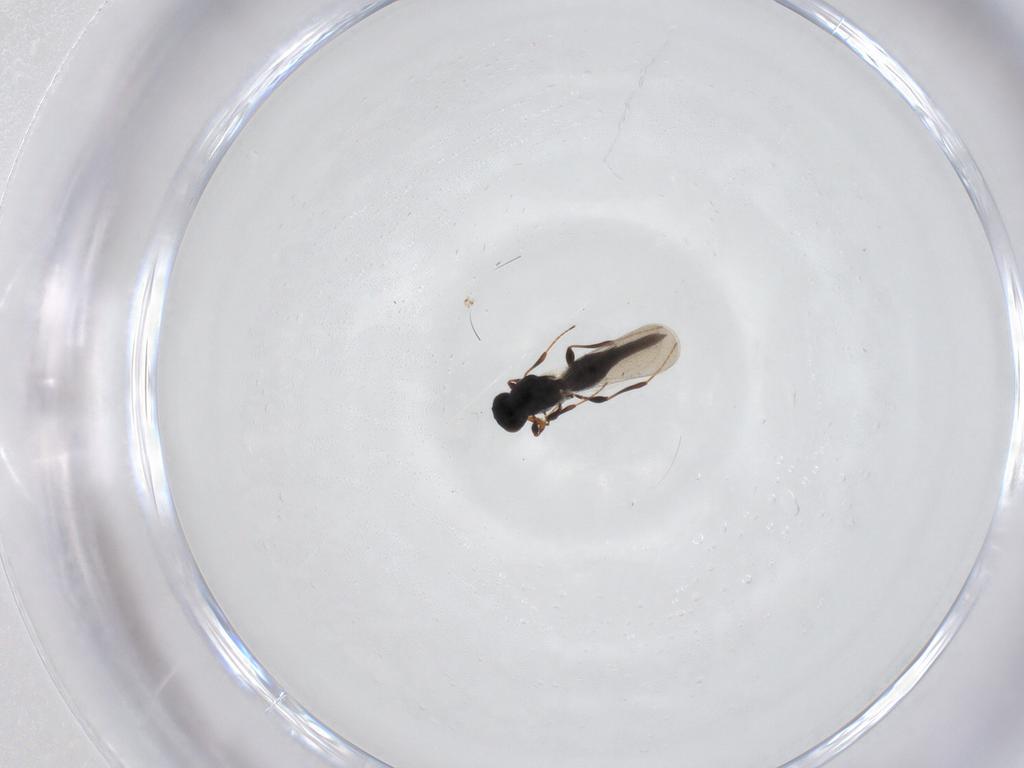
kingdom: Animalia
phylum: Arthropoda
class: Insecta
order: Hymenoptera
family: Platygastridae
